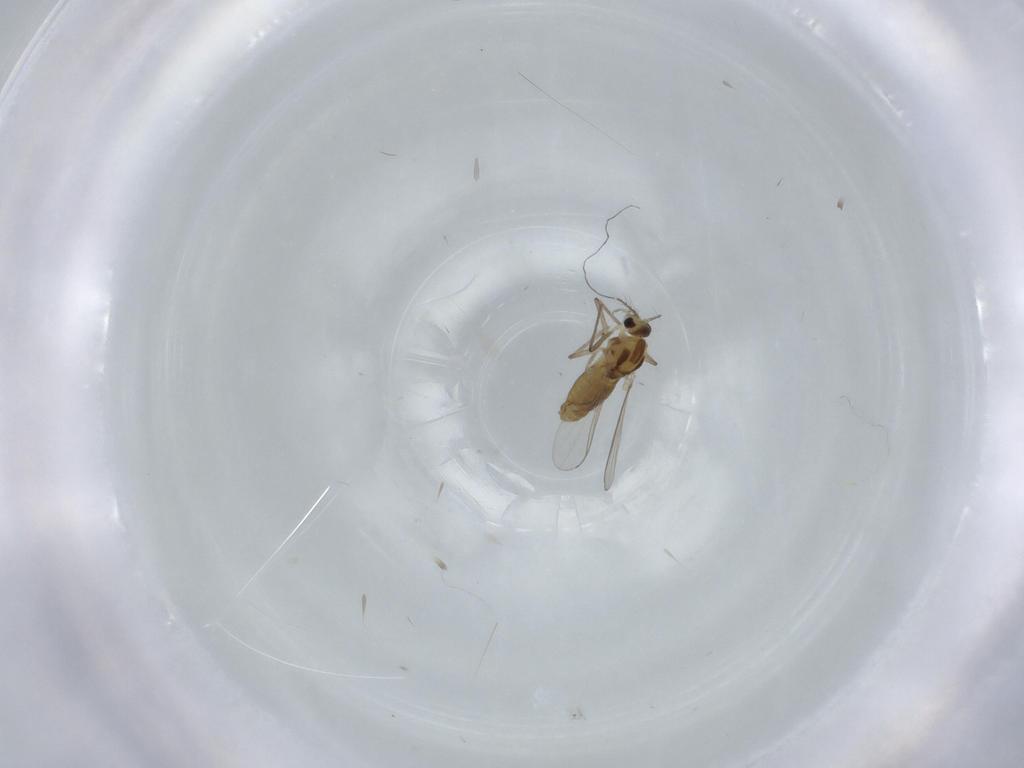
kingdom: Animalia
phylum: Arthropoda
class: Insecta
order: Diptera
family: Chironomidae
